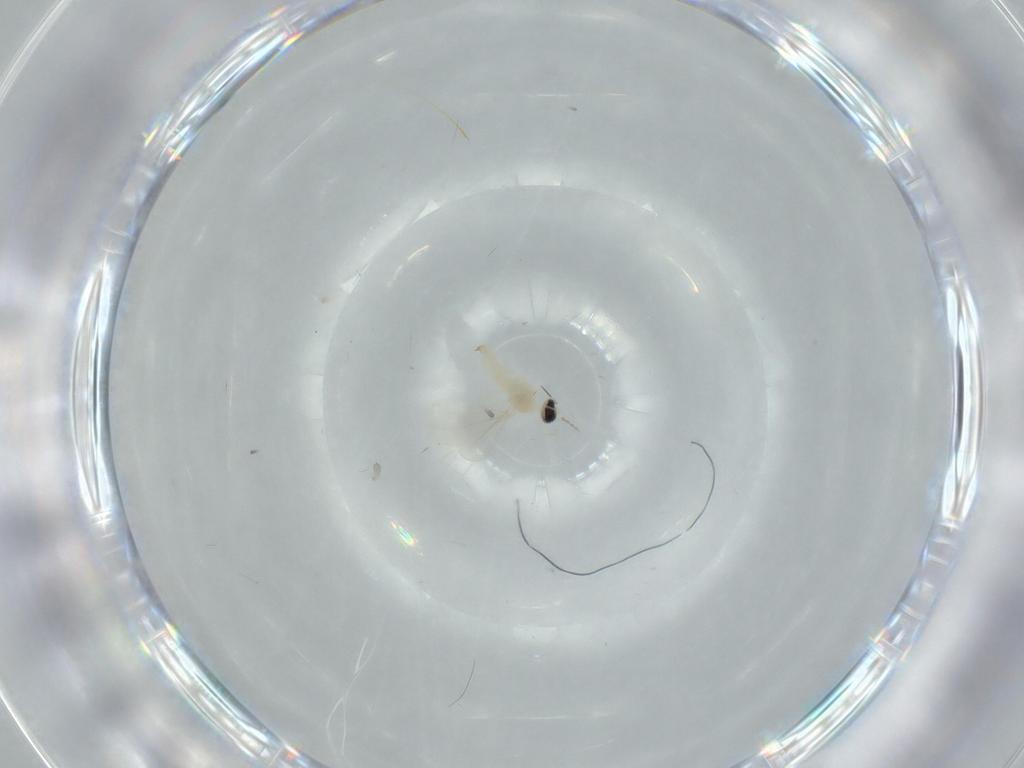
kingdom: Animalia
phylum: Arthropoda
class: Insecta
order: Diptera
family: Cecidomyiidae
